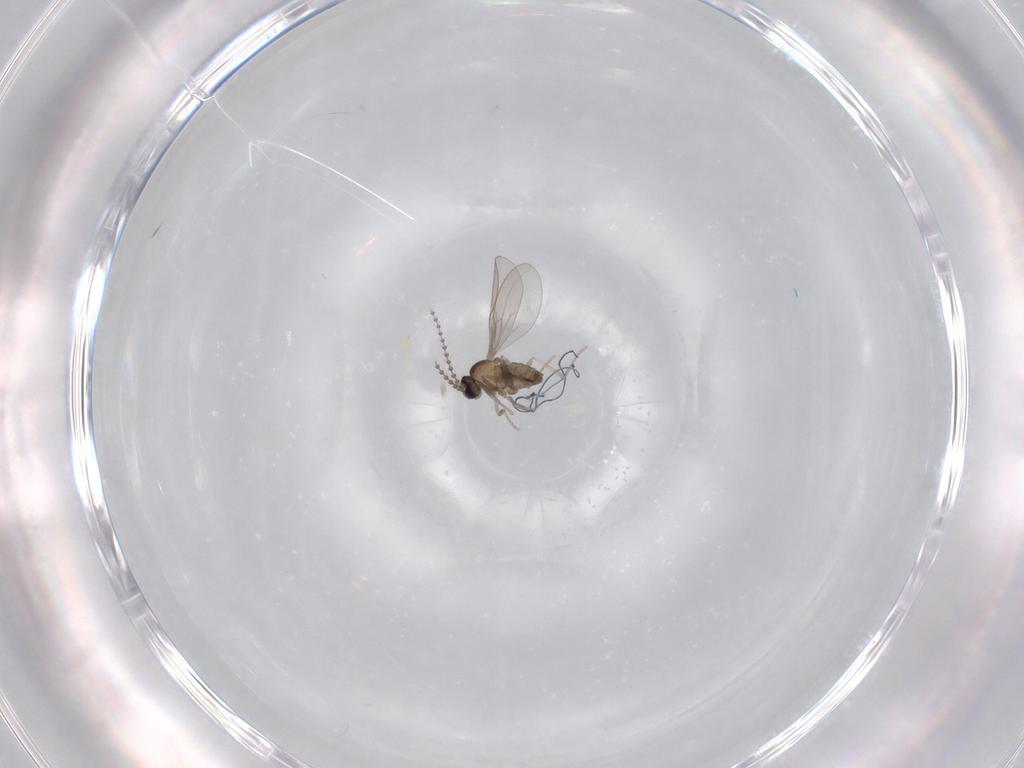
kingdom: Animalia
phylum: Arthropoda
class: Insecta
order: Diptera
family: Cecidomyiidae
